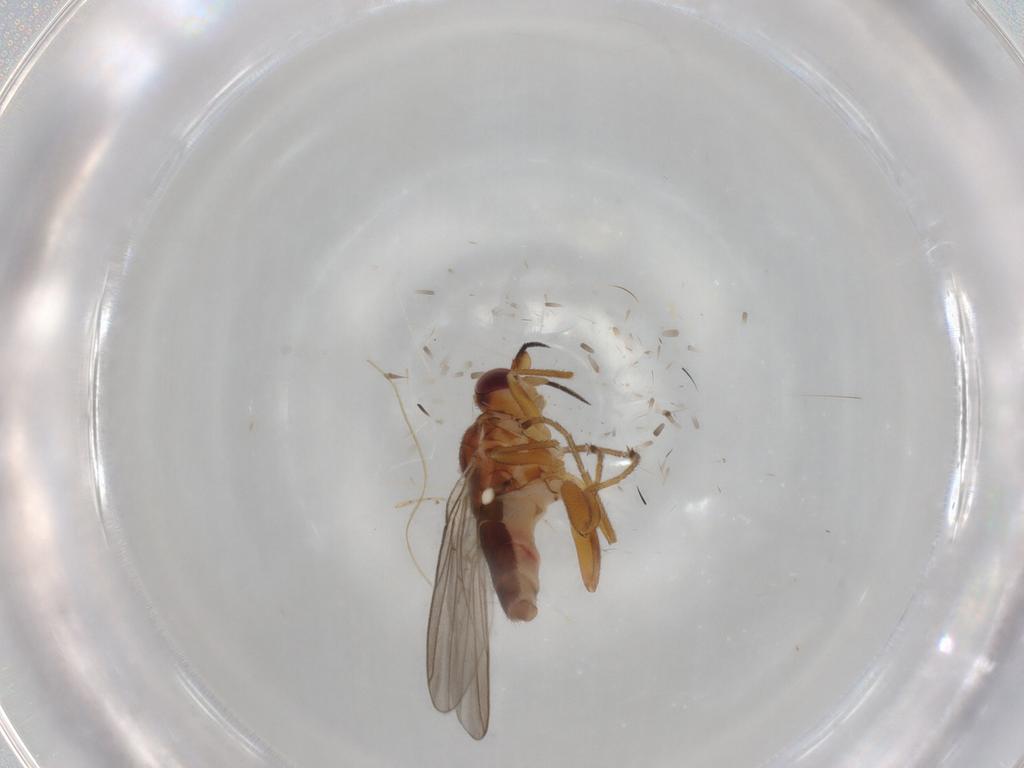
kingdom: Animalia
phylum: Arthropoda
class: Insecta
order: Diptera
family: Chloropidae
